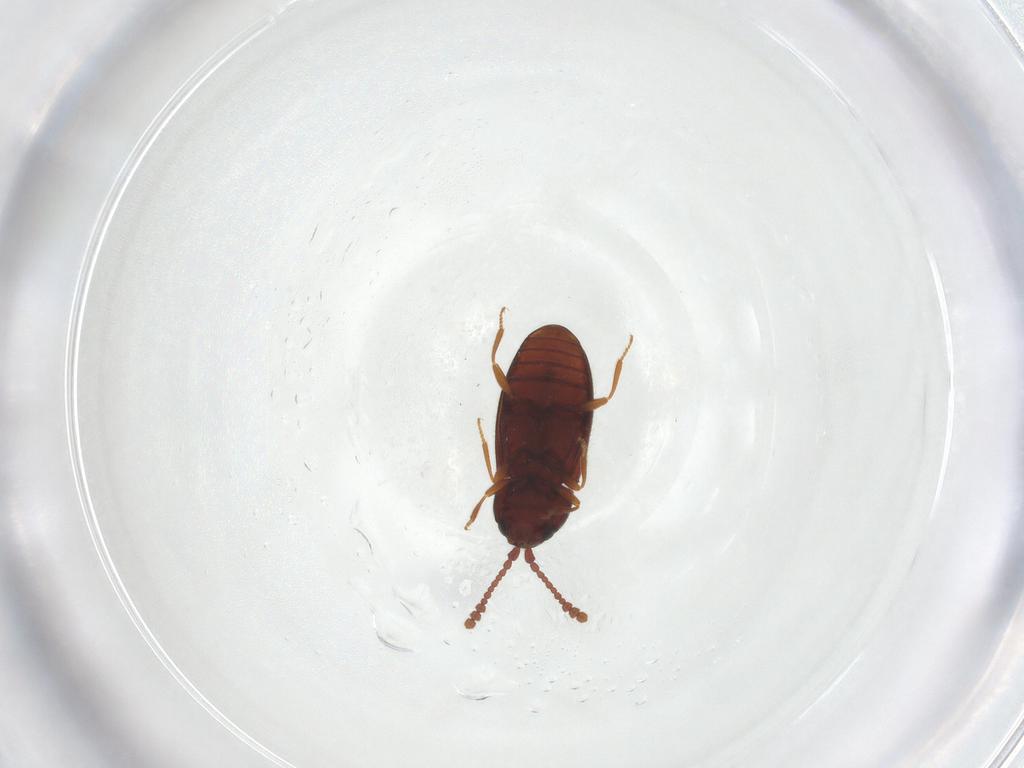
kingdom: Animalia
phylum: Arthropoda
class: Insecta
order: Coleoptera
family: Cryptophagidae
